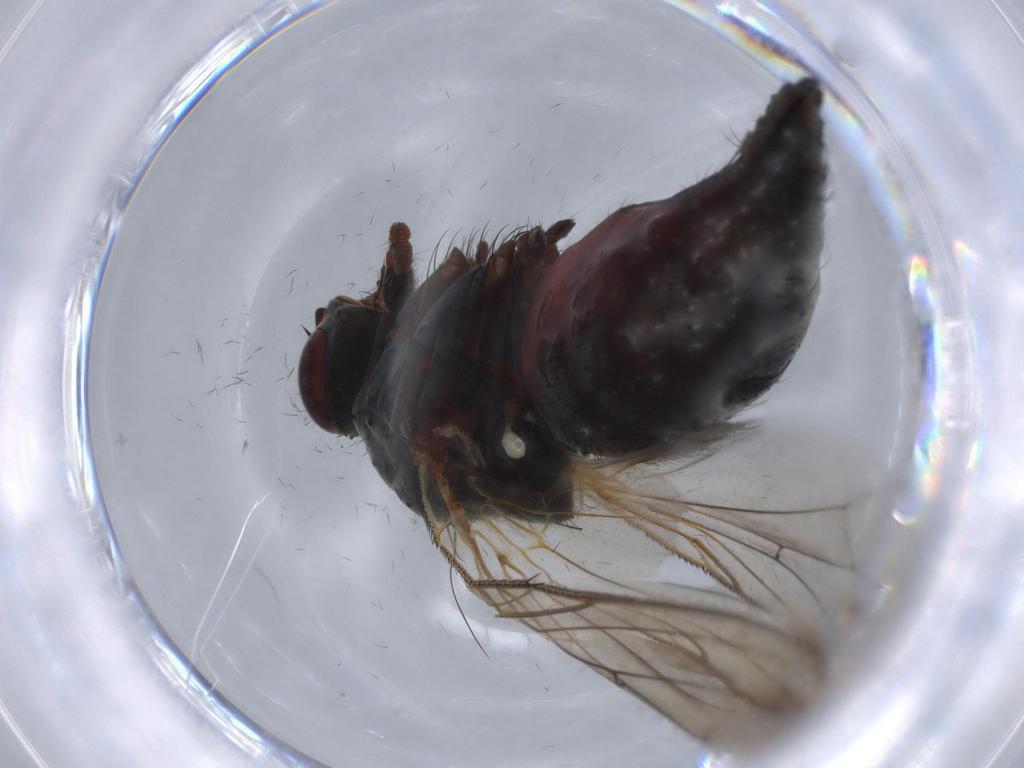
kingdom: Animalia
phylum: Arthropoda
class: Insecta
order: Diptera
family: Anthomyiidae
